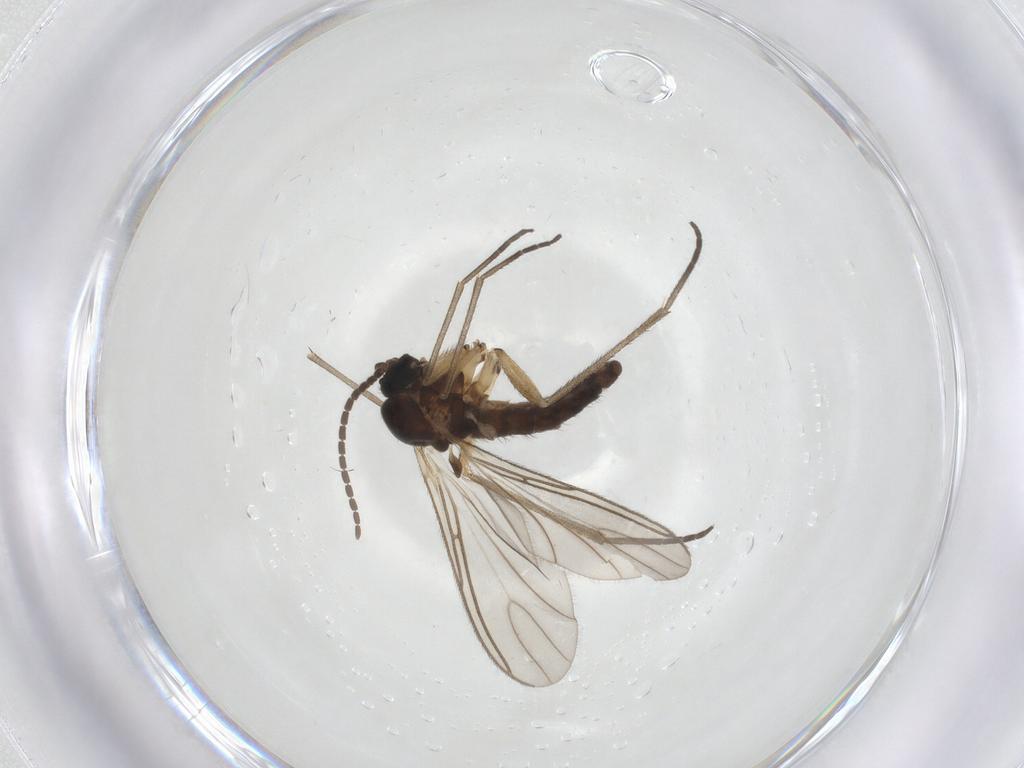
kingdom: Animalia
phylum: Arthropoda
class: Insecta
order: Diptera
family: Sciaridae
